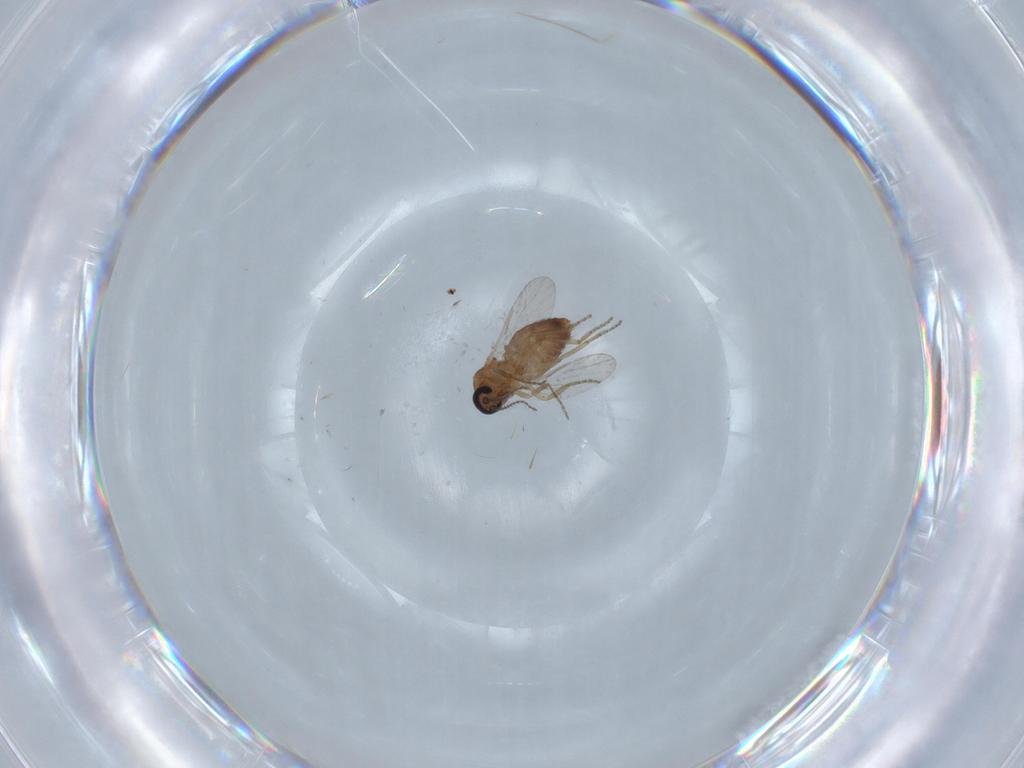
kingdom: Animalia
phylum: Arthropoda
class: Insecta
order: Diptera
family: Ceratopogonidae
